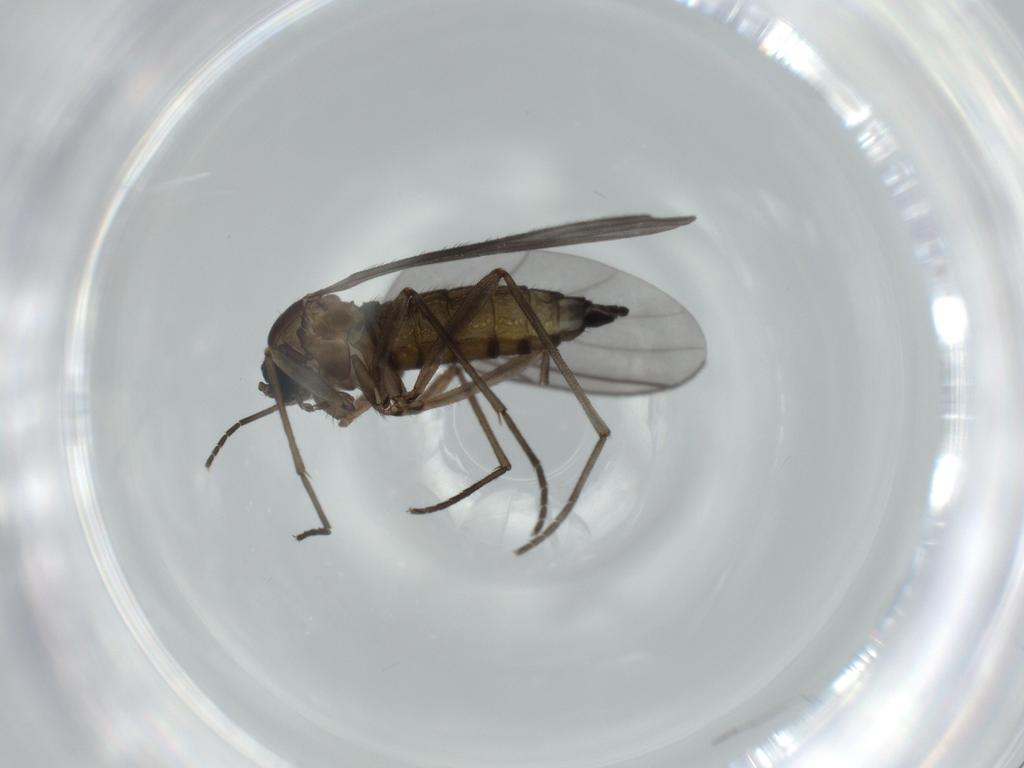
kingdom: Animalia
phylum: Arthropoda
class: Insecta
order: Diptera
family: Sciaridae
